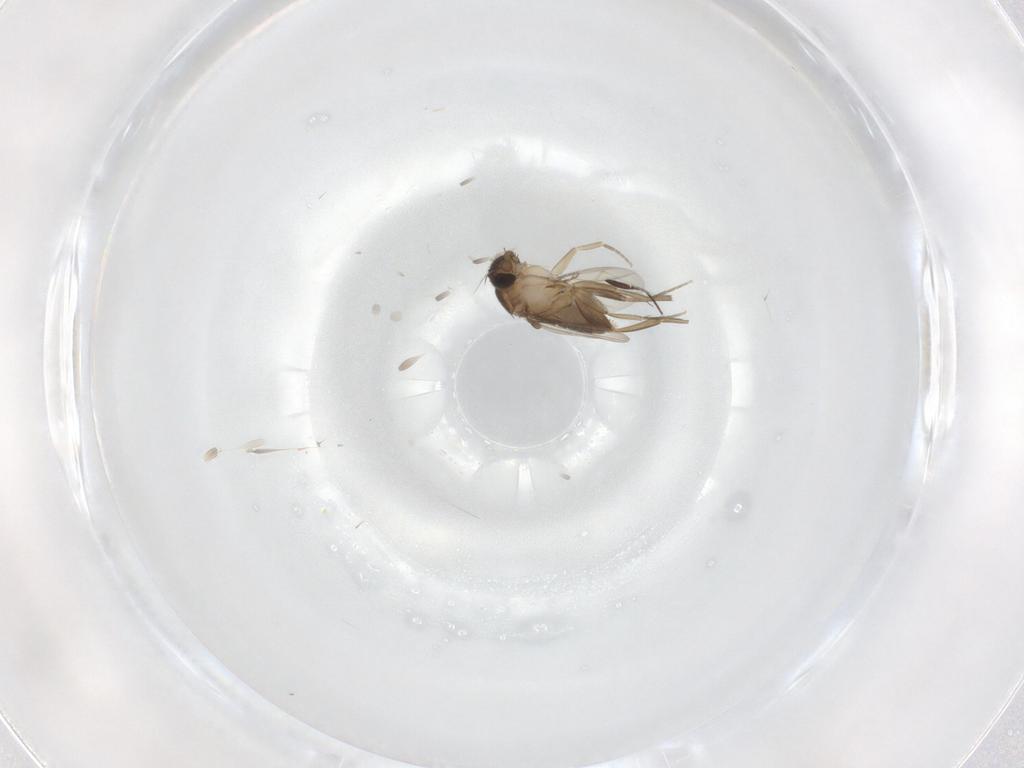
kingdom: Animalia
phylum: Arthropoda
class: Insecta
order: Diptera
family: Phoridae
